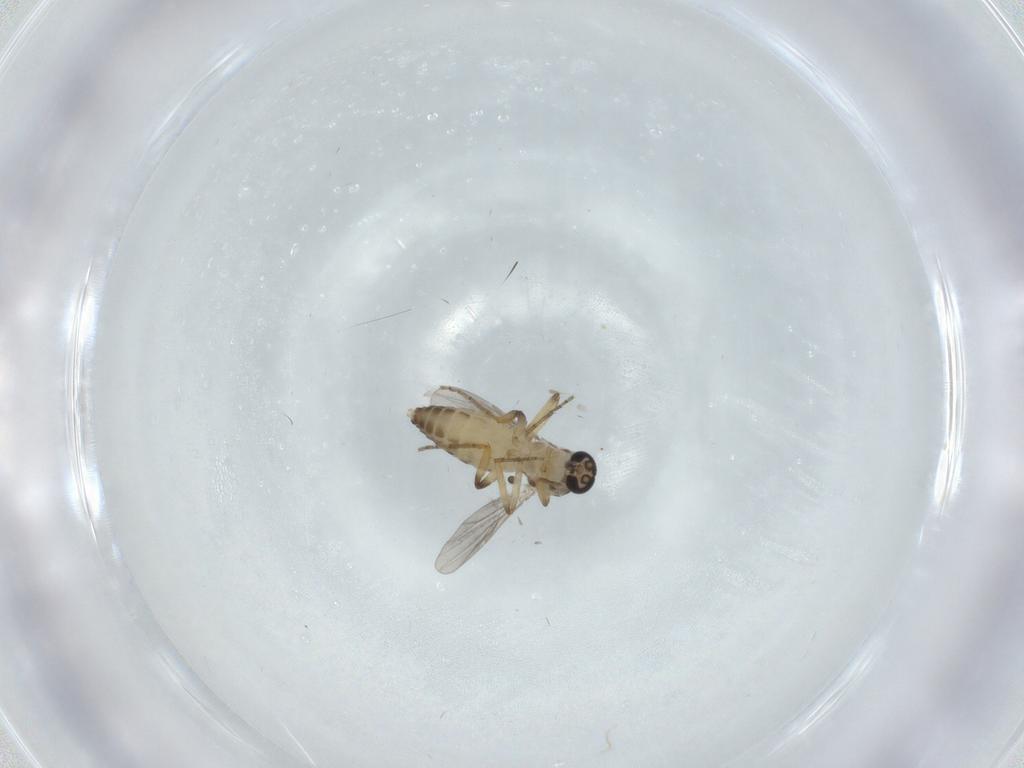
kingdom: Animalia
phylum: Arthropoda
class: Insecta
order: Diptera
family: Ceratopogonidae
